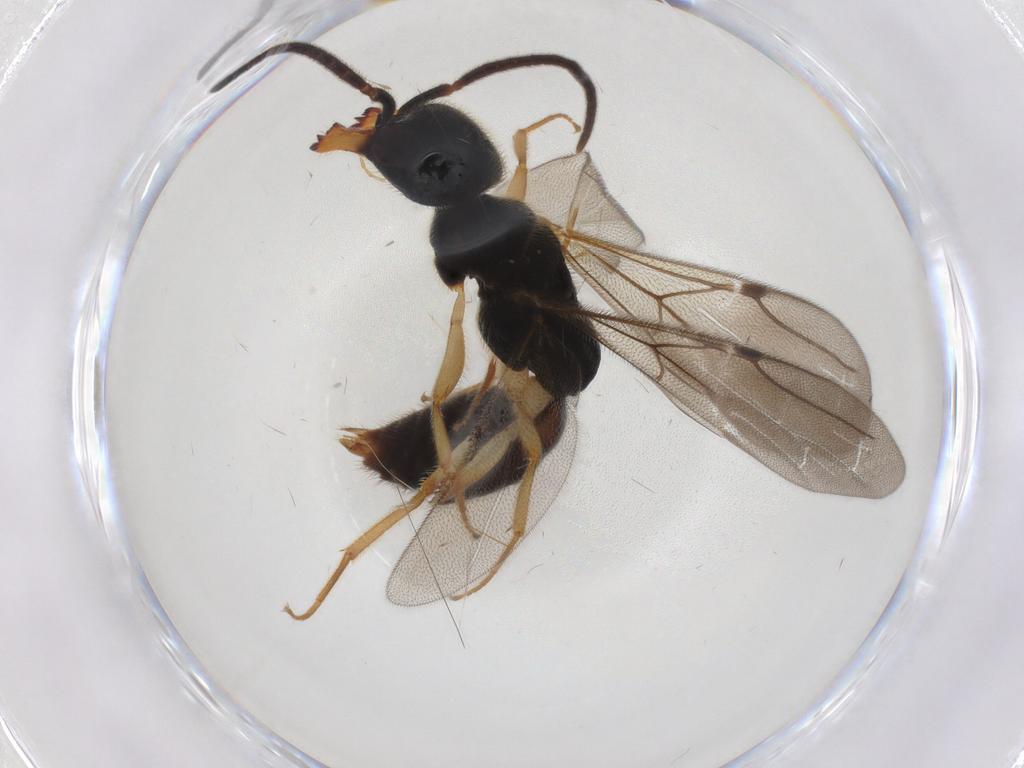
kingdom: Animalia
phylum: Arthropoda
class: Insecta
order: Hymenoptera
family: Bethylidae
